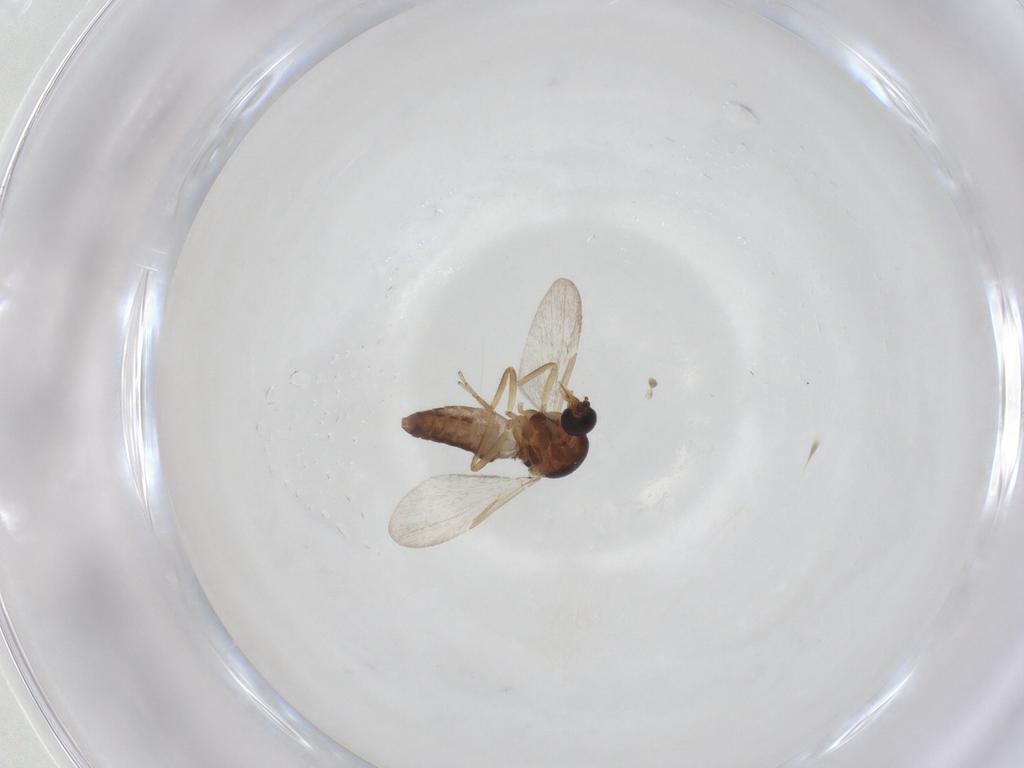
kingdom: Animalia
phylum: Arthropoda
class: Insecta
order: Diptera
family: Ceratopogonidae
